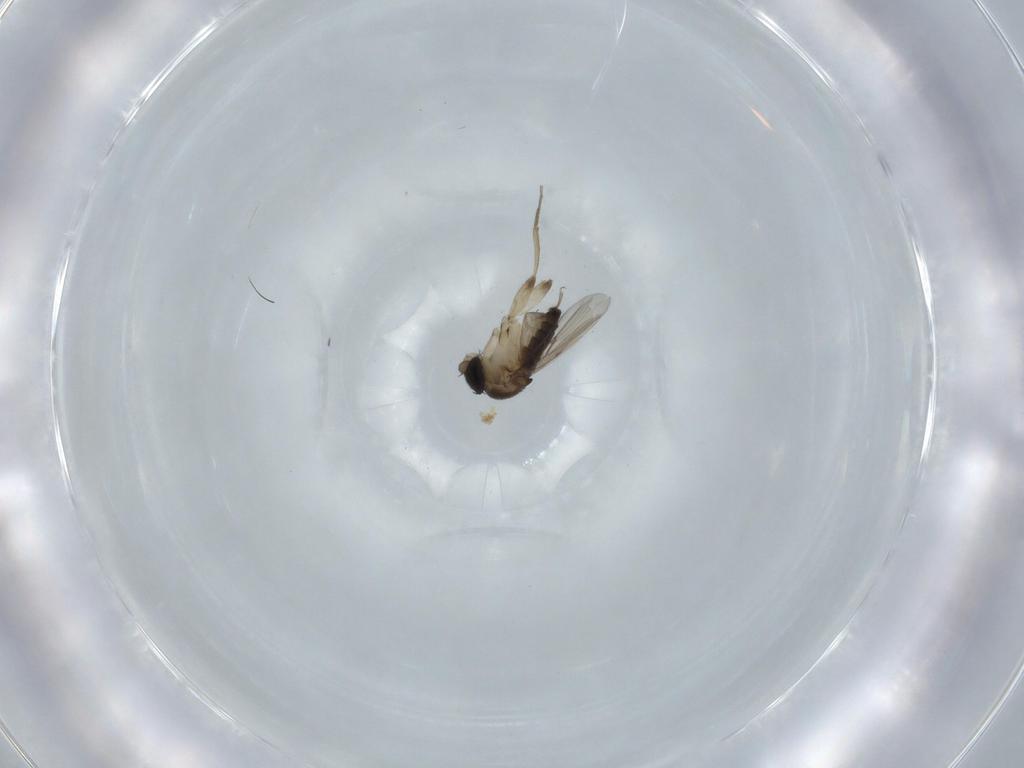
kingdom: Animalia
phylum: Arthropoda
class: Insecta
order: Diptera
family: Phoridae
